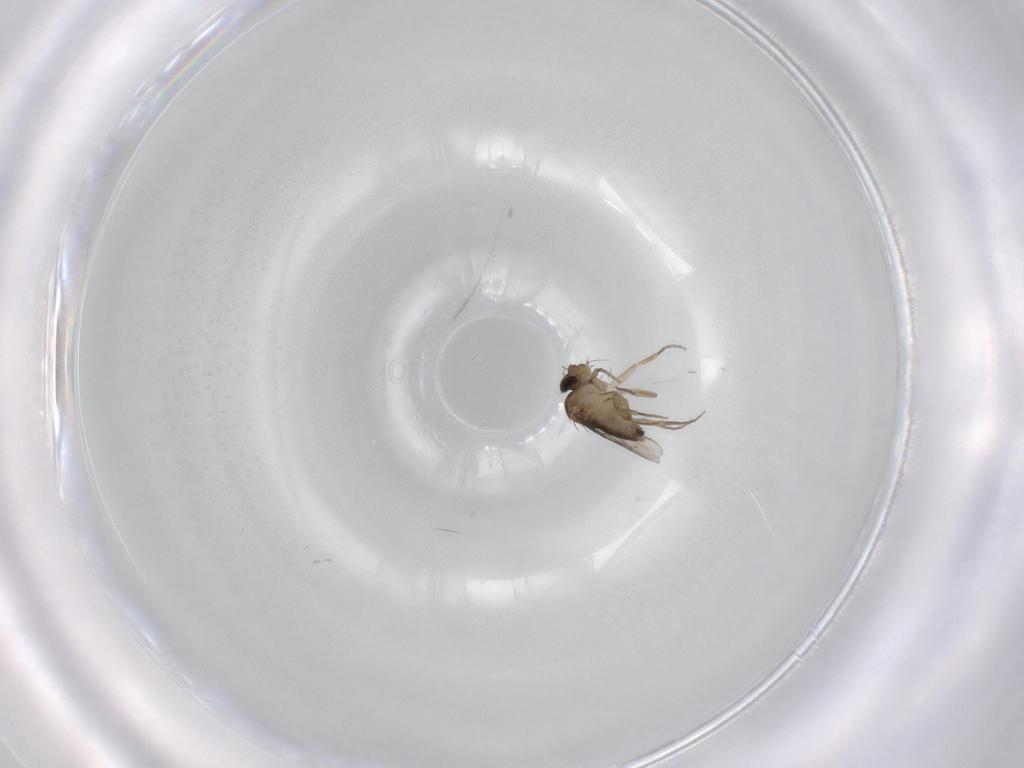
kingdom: Animalia
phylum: Arthropoda
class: Insecta
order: Diptera
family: Phoridae
